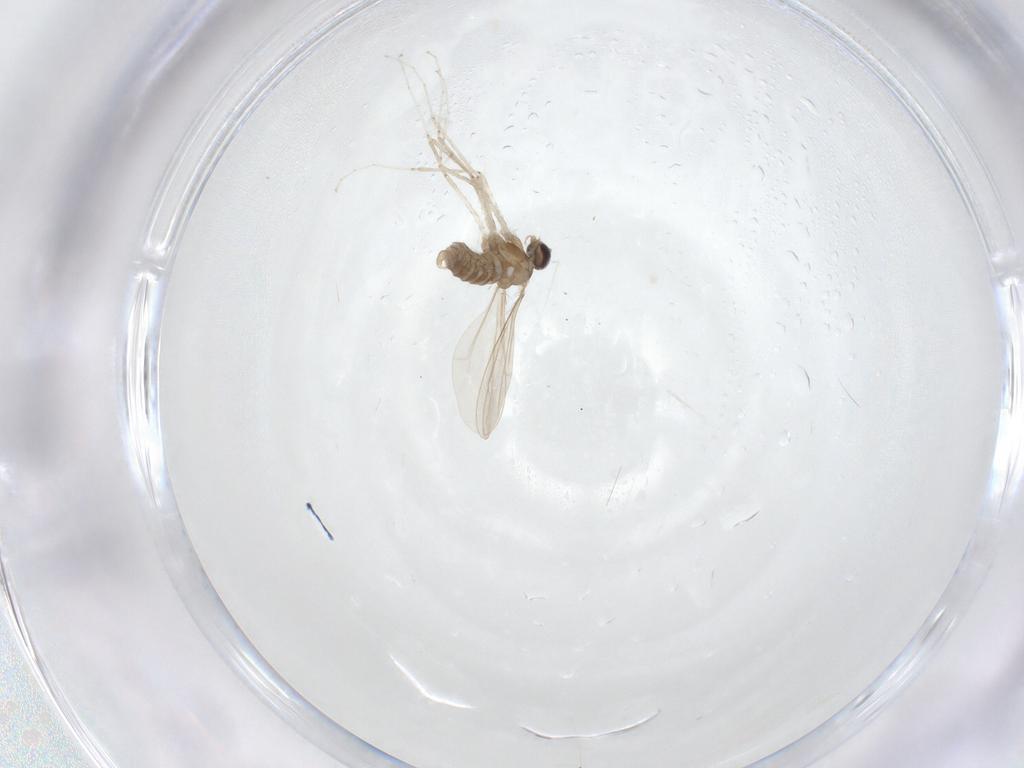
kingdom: Animalia
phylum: Arthropoda
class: Insecta
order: Diptera
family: Cecidomyiidae
